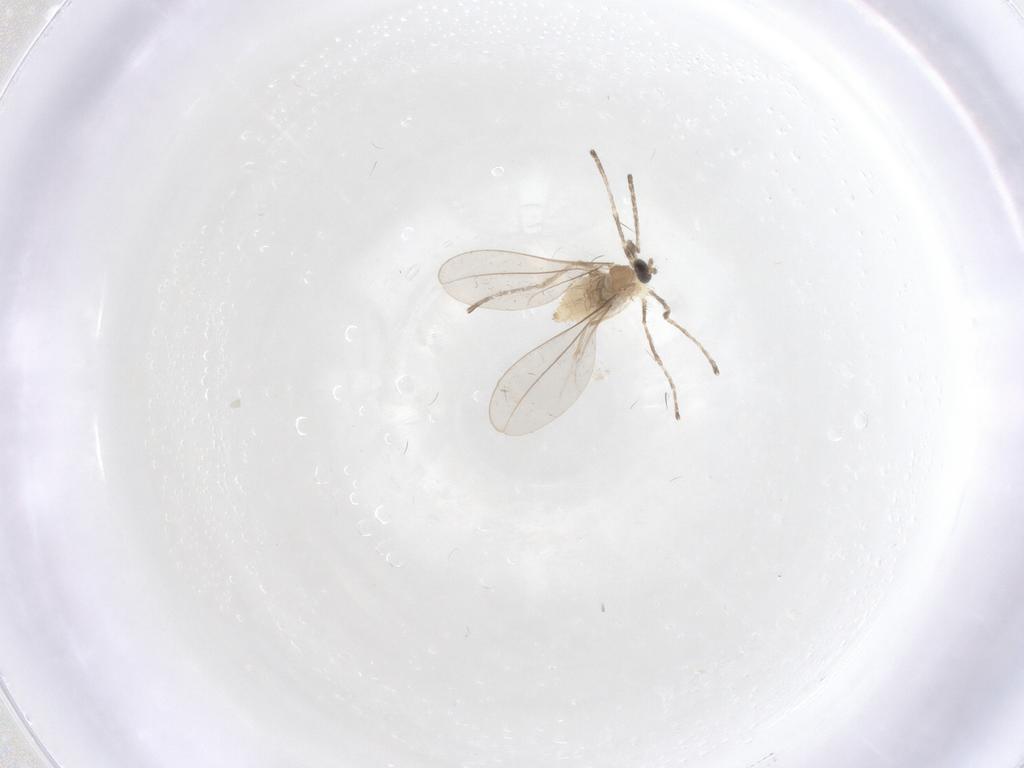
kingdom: Animalia
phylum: Arthropoda
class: Insecta
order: Diptera
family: Cecidomyiidae
